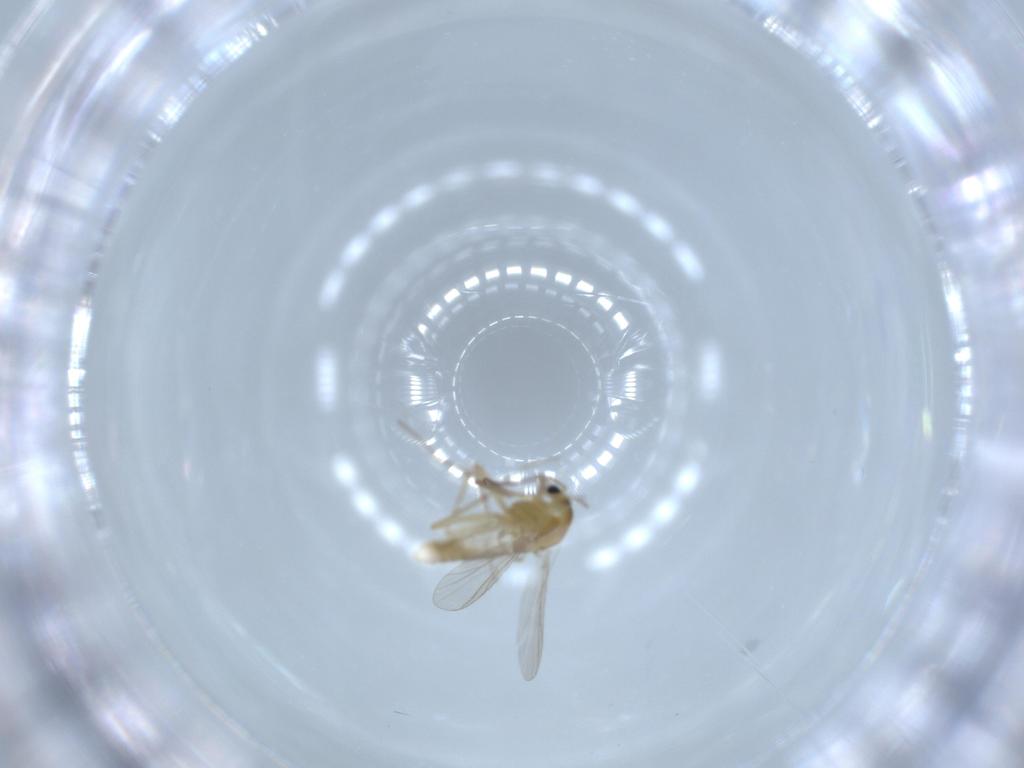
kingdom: Animalia
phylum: Arthropoda
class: Insecta
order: Diptera
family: Chironomidae
